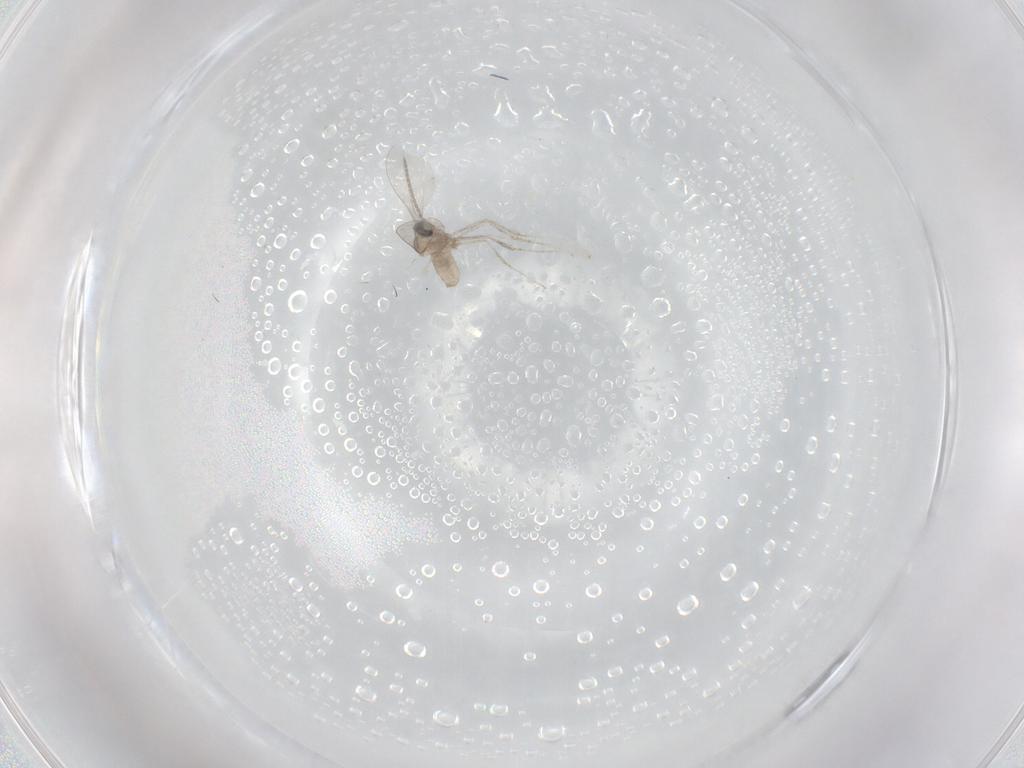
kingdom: Animalia
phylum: Arthropoda
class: Insecta
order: Diptera
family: Cecidomyiidae
